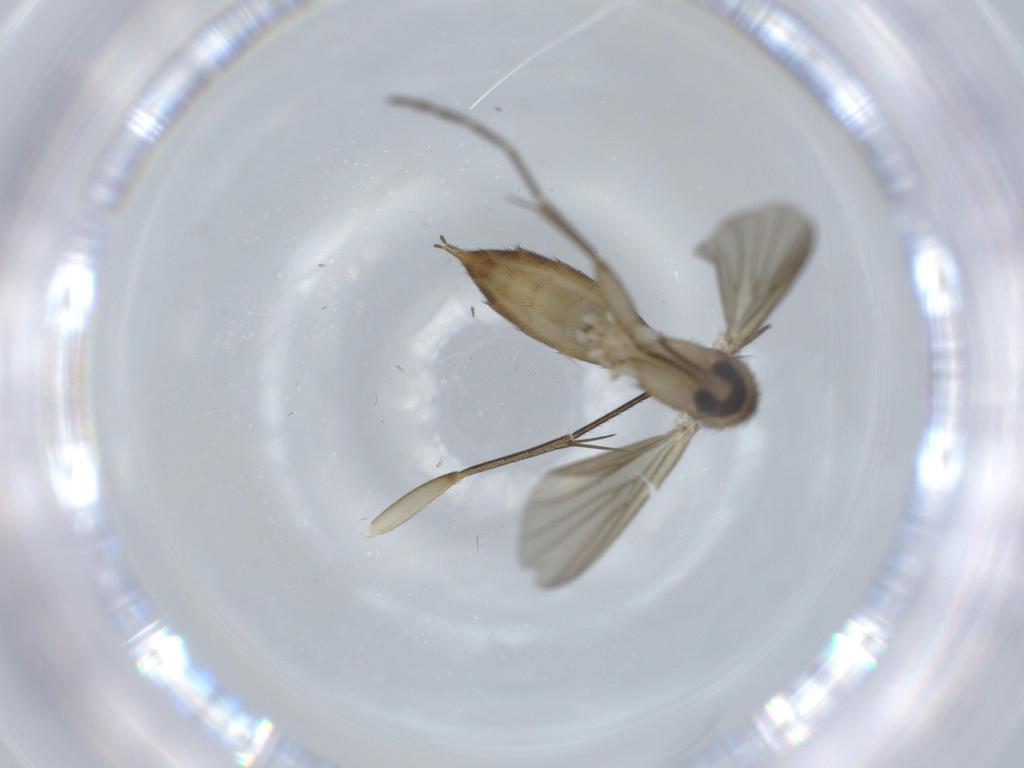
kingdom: Animalia
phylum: Arthropoda
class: Insecta
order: Diptera
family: Mycetophilidae
